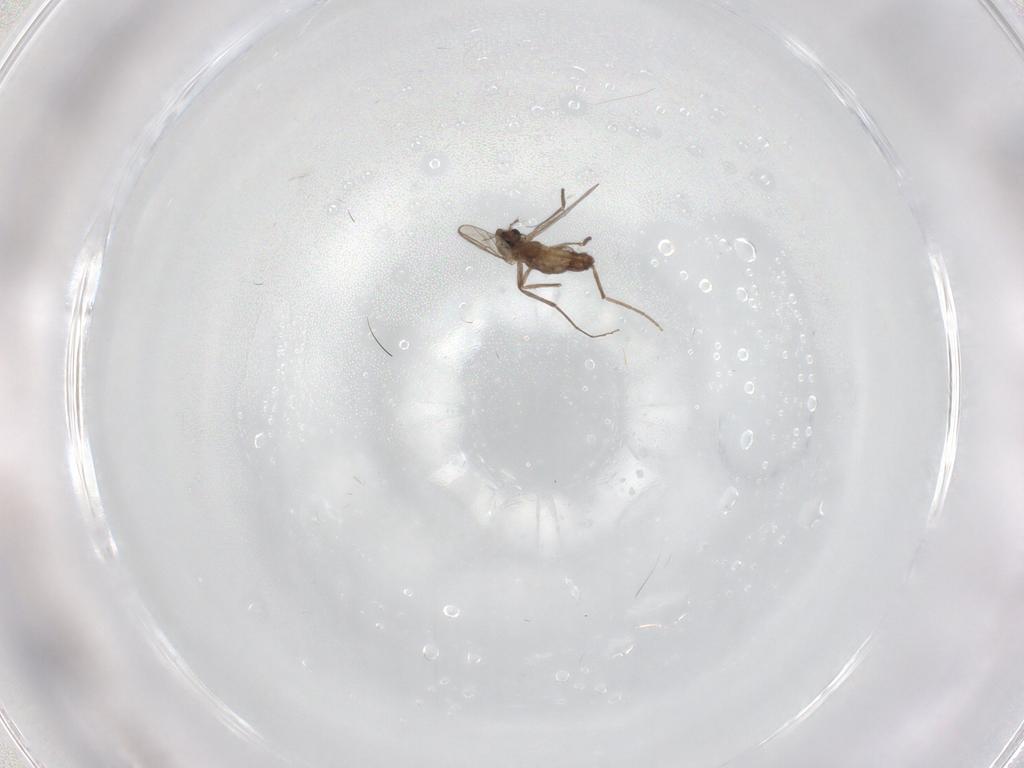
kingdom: Animalia
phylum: Arthropoda
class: Insecta
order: Diptera
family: Chironomidae
